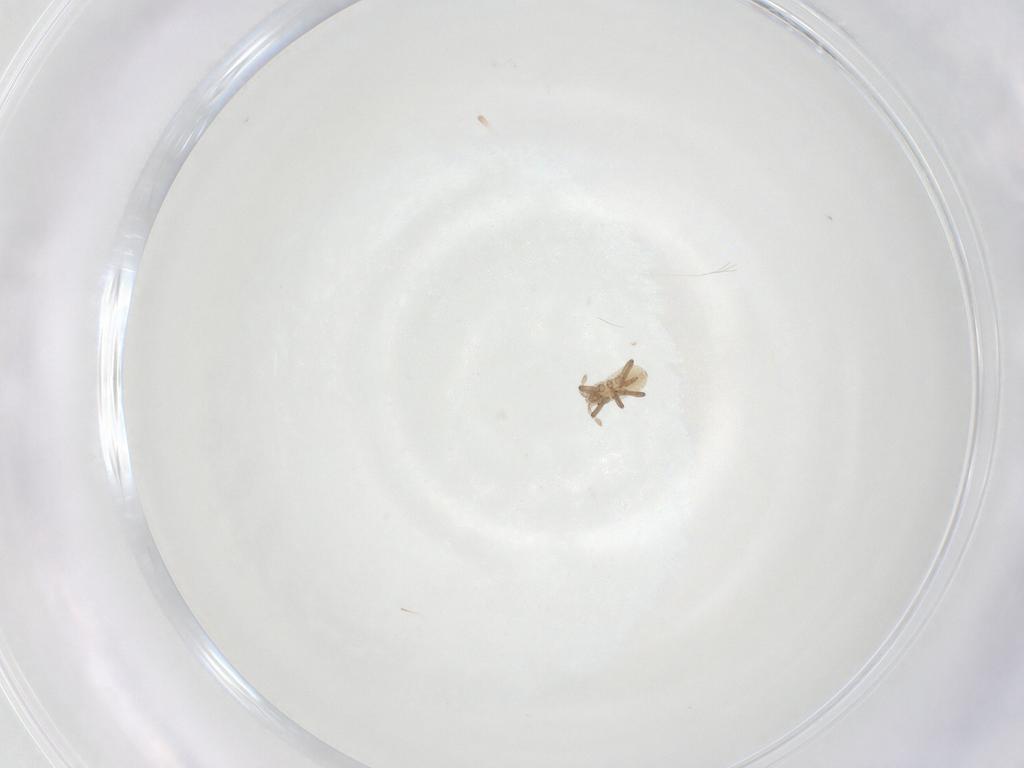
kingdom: Animalia
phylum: Arthropoda
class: Insecta
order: Hemiptera
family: Aphididae
